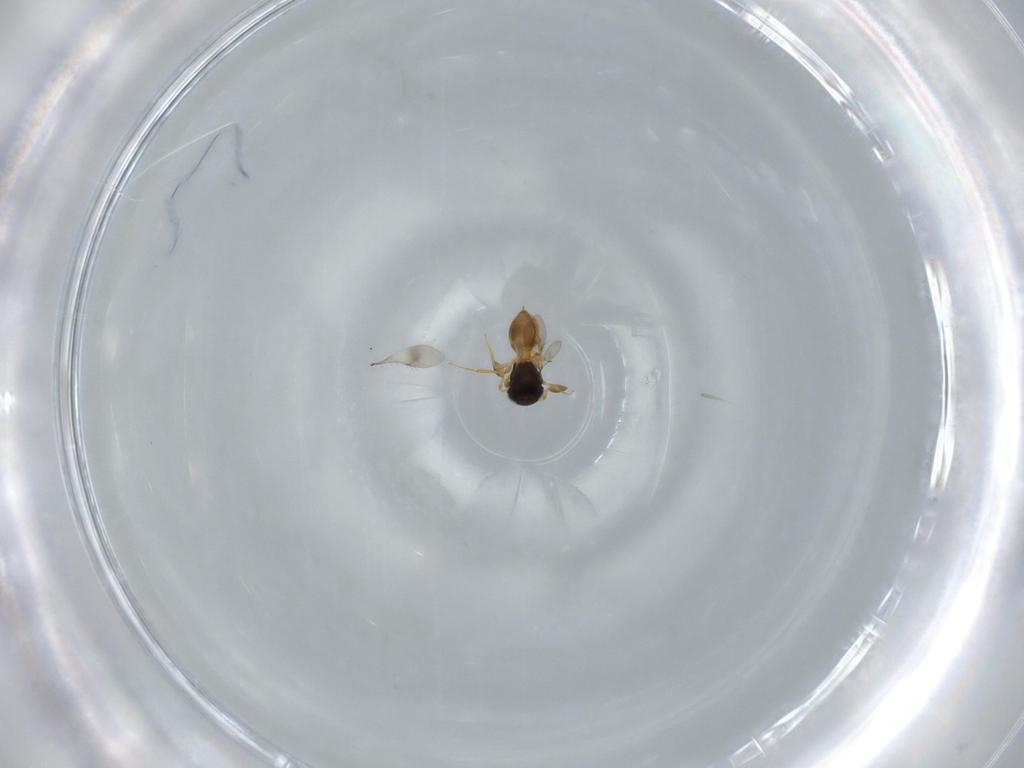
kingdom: Animalia
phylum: Arthropoda
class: Insecta
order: Hymenoptera
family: Scelionidae
